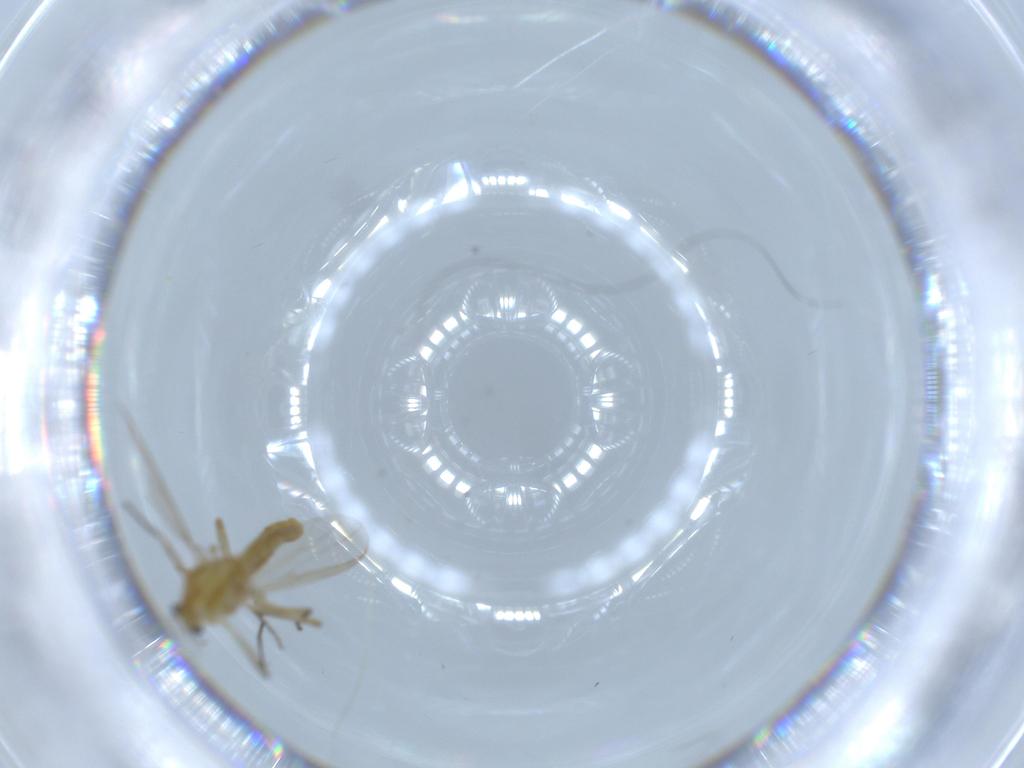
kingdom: Animalia
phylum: Arthropoda
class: Insecta
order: Diptera
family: Chironomidae
